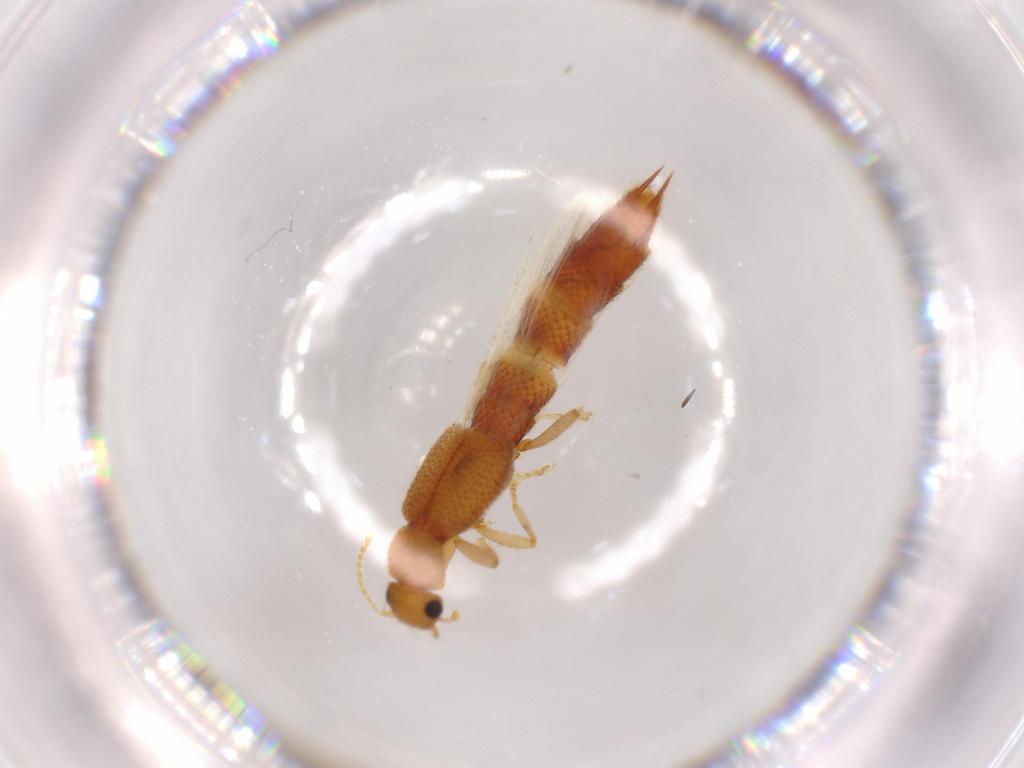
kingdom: Animalia
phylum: Arthropoda
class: Insecta
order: Coleoptera
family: Staphylinidae
